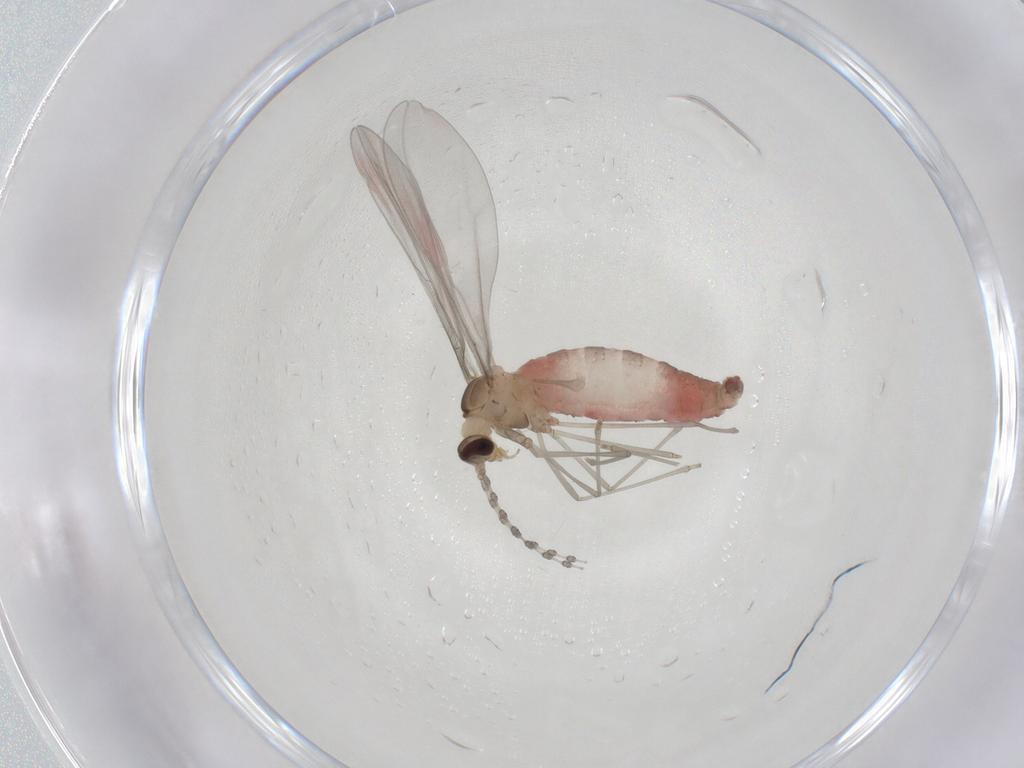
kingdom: Animalia
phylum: Arthropoda
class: Insecta
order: Diptera
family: Cecidomyiidae
